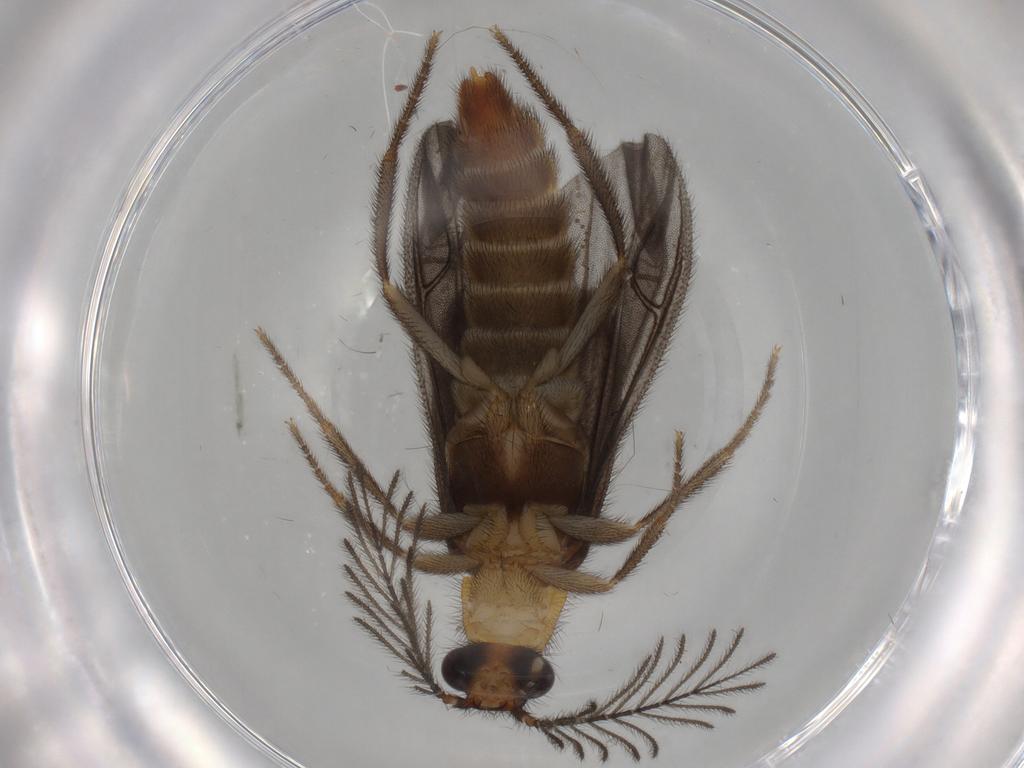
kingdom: Animalia
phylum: Arthropoda
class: Insecta
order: Coleoptera
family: Phengodidae
